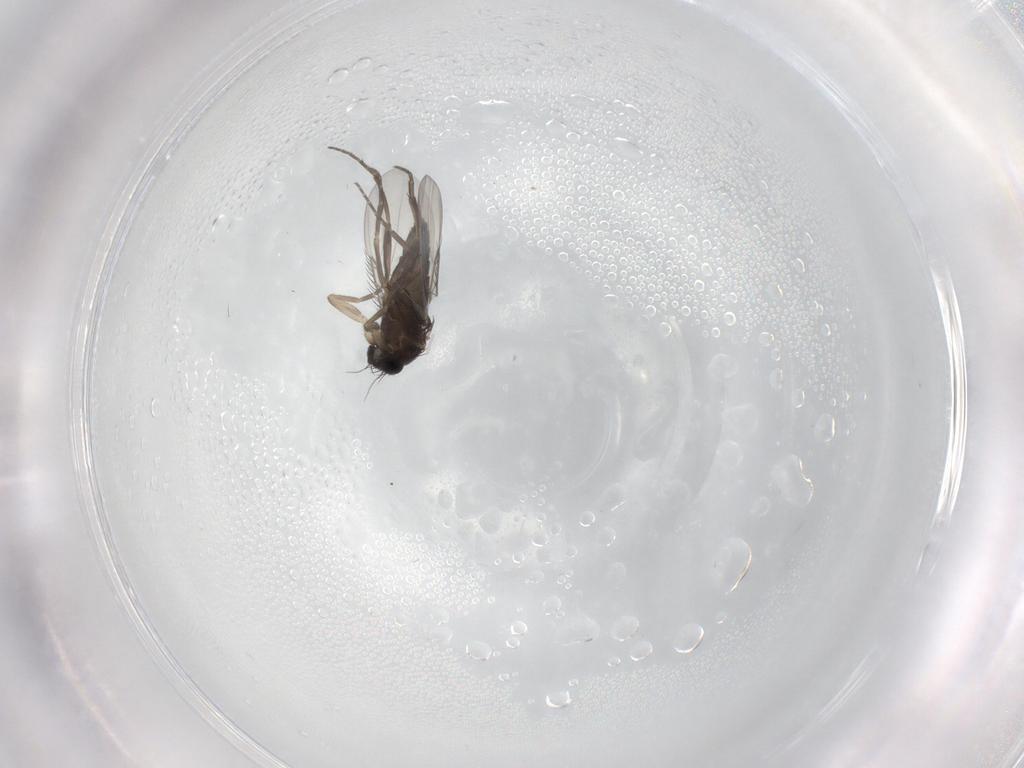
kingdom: Animalia
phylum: Arthropoda
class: Insecta
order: Diptera
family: Phoridae
